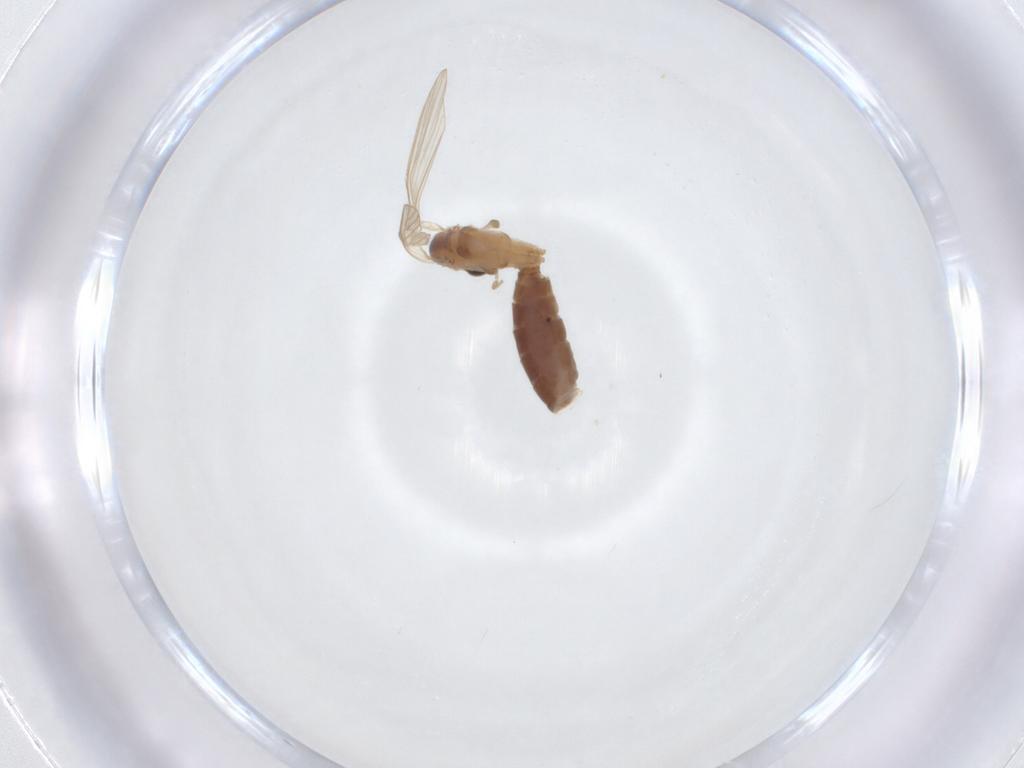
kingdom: Animalia
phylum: Arthropoda
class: Insecta
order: Diptera
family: Psychodidae
